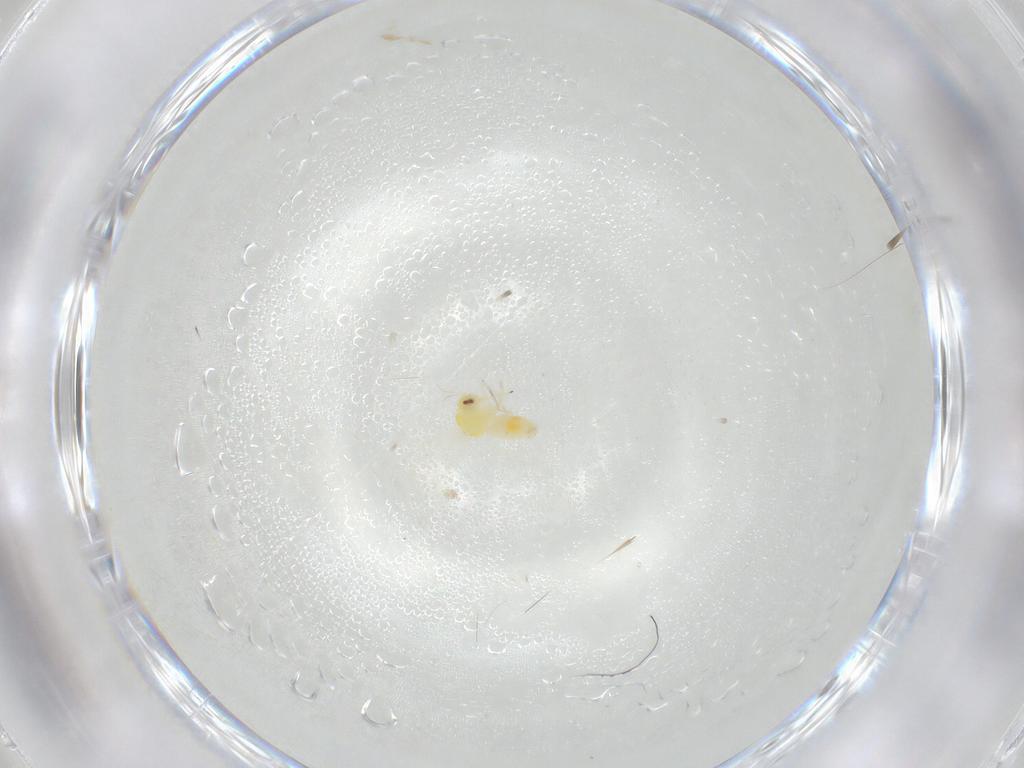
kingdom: Animalia
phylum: Arthropoda
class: Insecta
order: Hemiptera
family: Aleyrodidae
